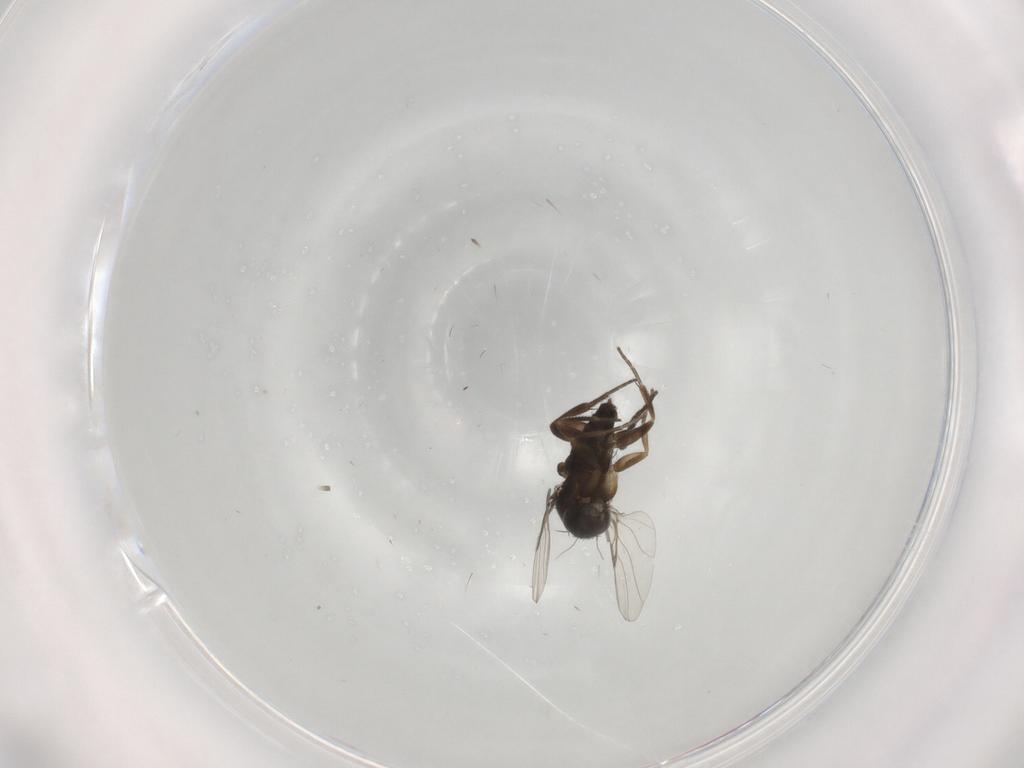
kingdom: Animalia
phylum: Arthropoda
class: Insecta
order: Diptera
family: Phoridae
